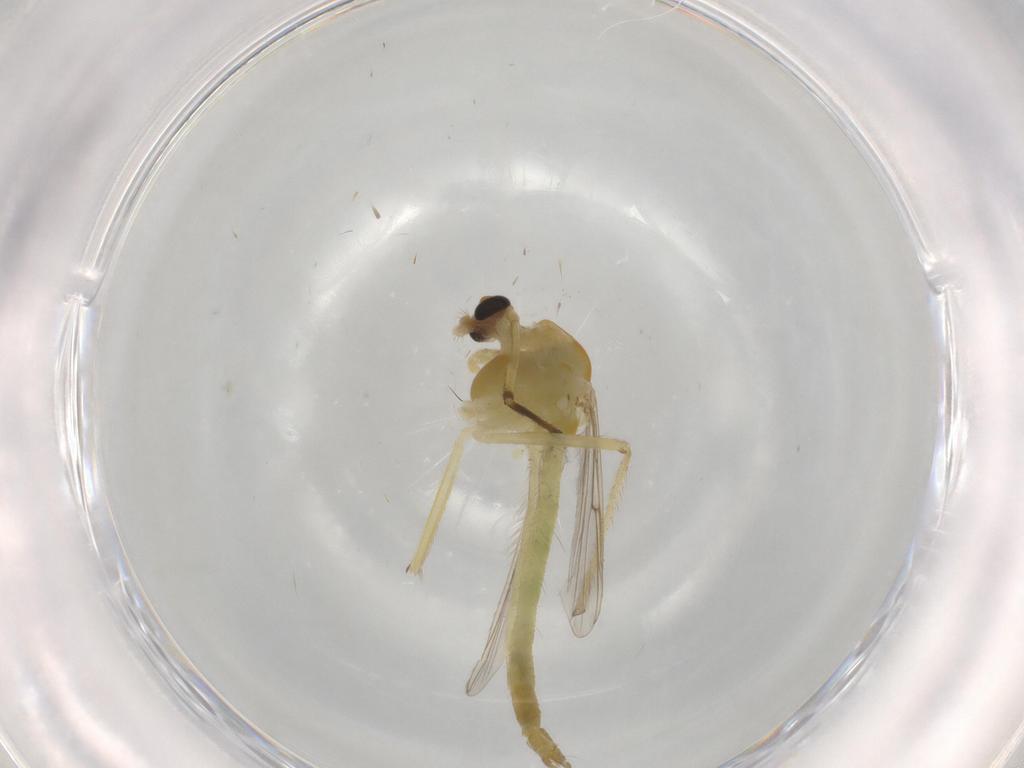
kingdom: Animalia
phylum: Arthropoda
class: Insecta
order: Diptera
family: Chironomidae
